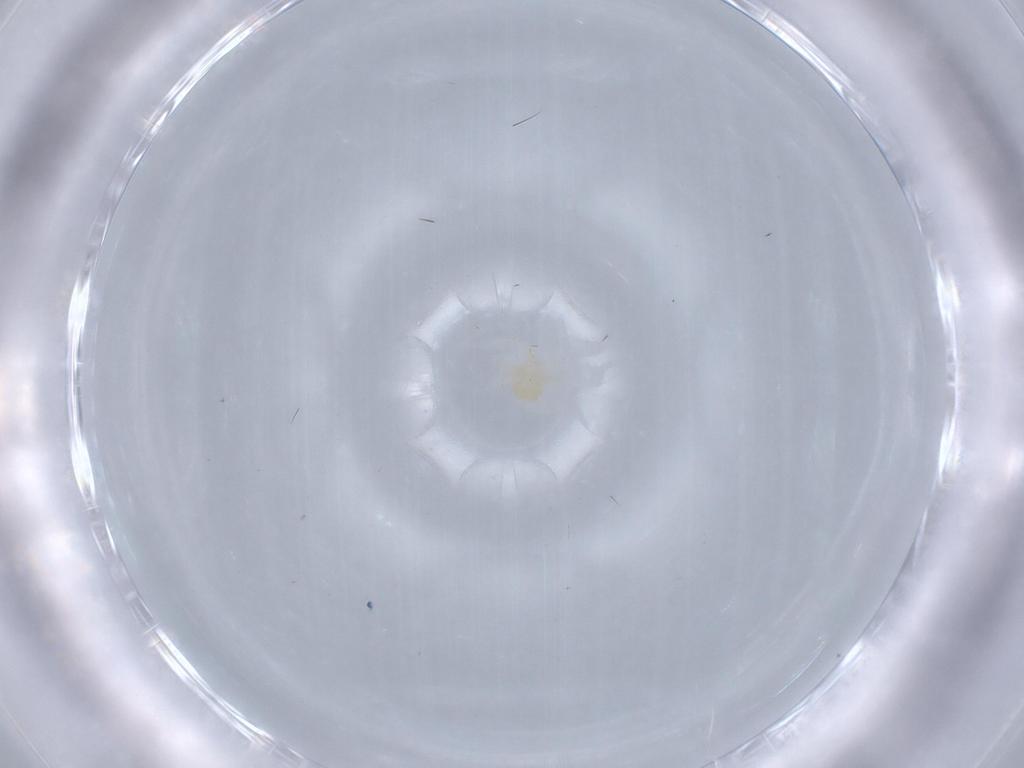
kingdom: Animalia
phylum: Arthropoda
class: Arachnida
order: Trombidiformes
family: Anystidae
